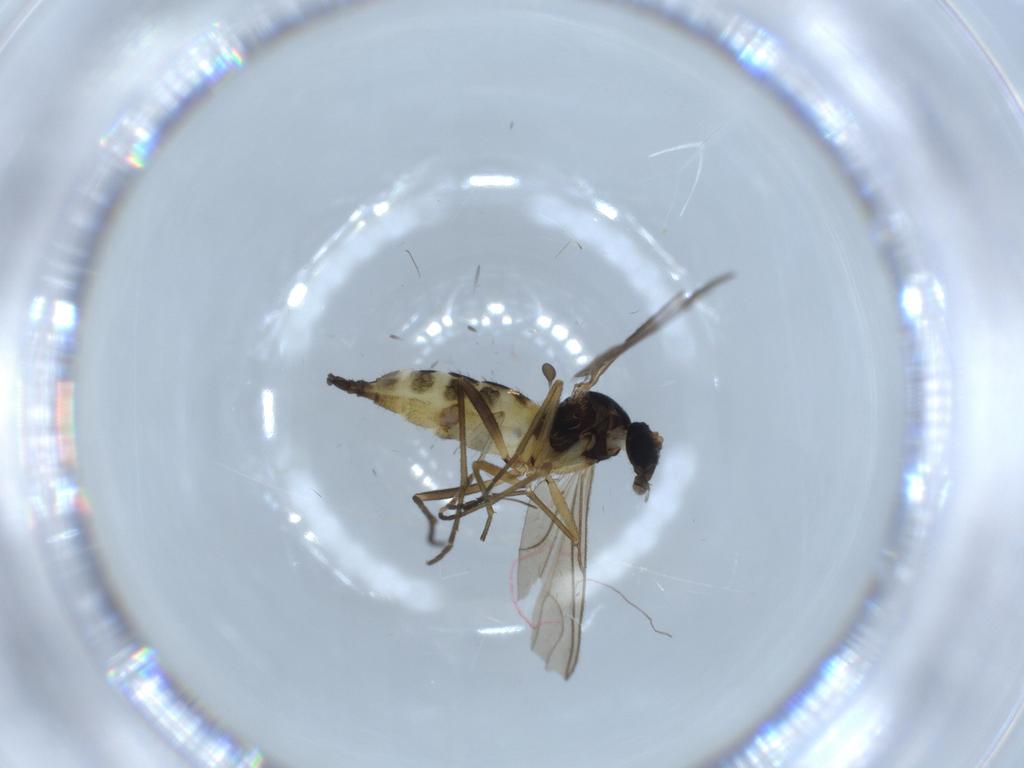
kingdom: Animalia
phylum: Arthropoda
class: Insecta
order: Diptera
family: Sciaridae
